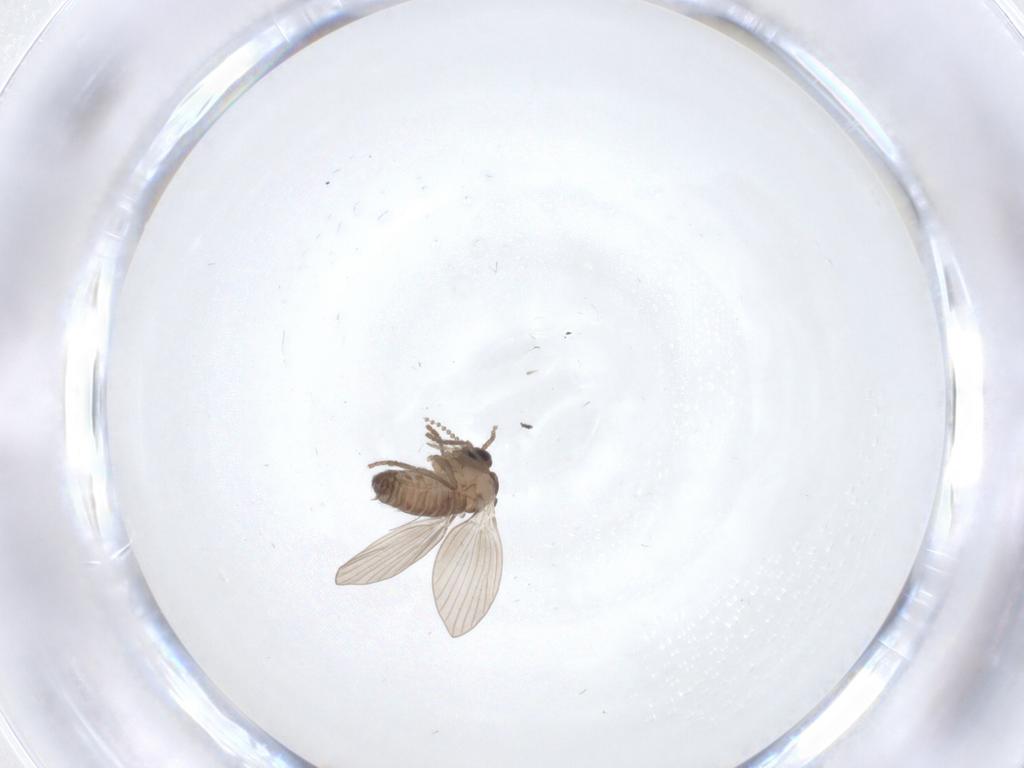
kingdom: Animalia
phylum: Arthropoda
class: Insecta
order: Diptera
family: Psychodidae
